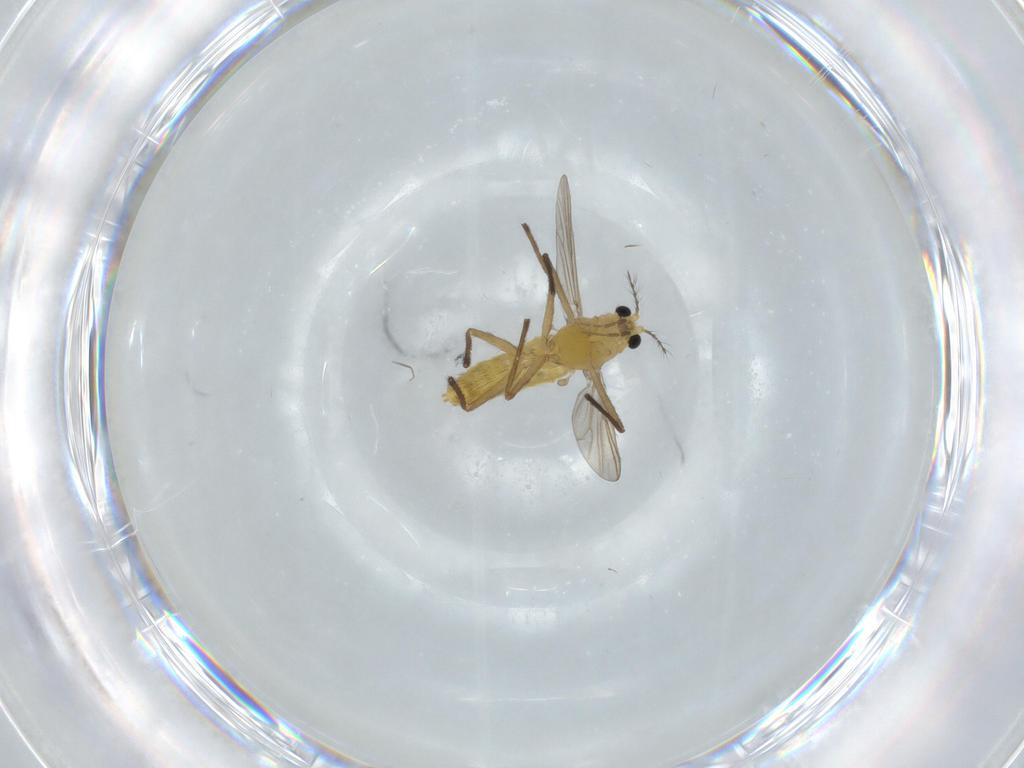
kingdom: Animalia
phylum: Arthropoda
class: Insecta
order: Diptera
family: Chironomidae
